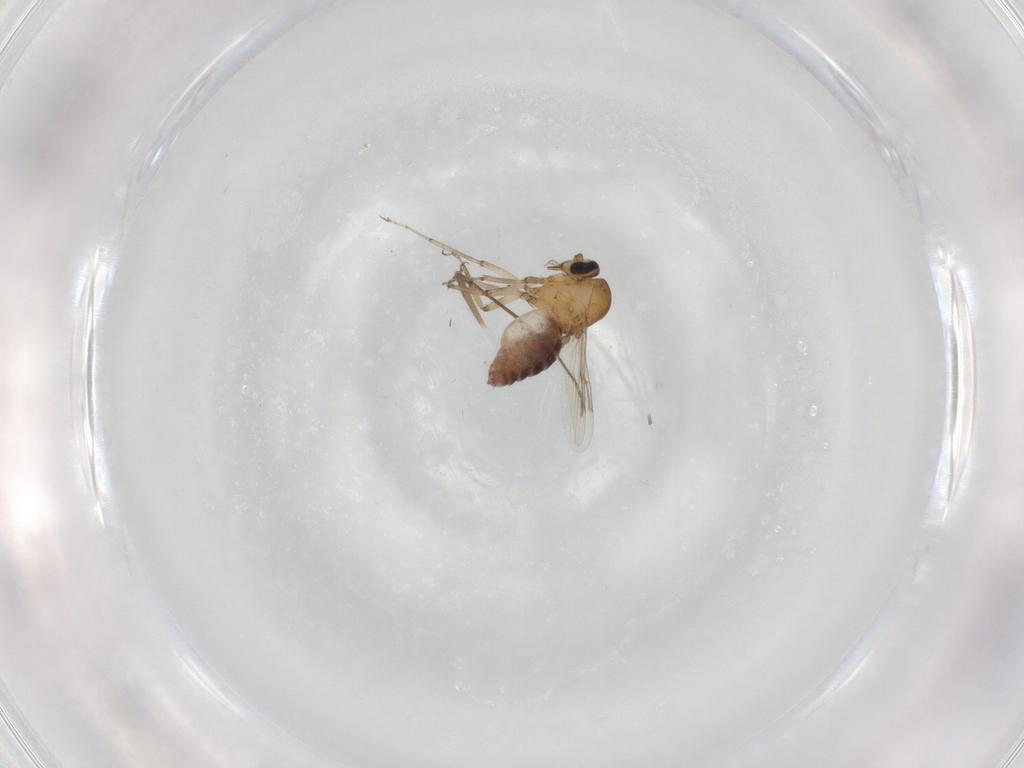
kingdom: Animalia
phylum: Arthropoda
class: Insecta
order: Diptera
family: Ceratopogonidae
